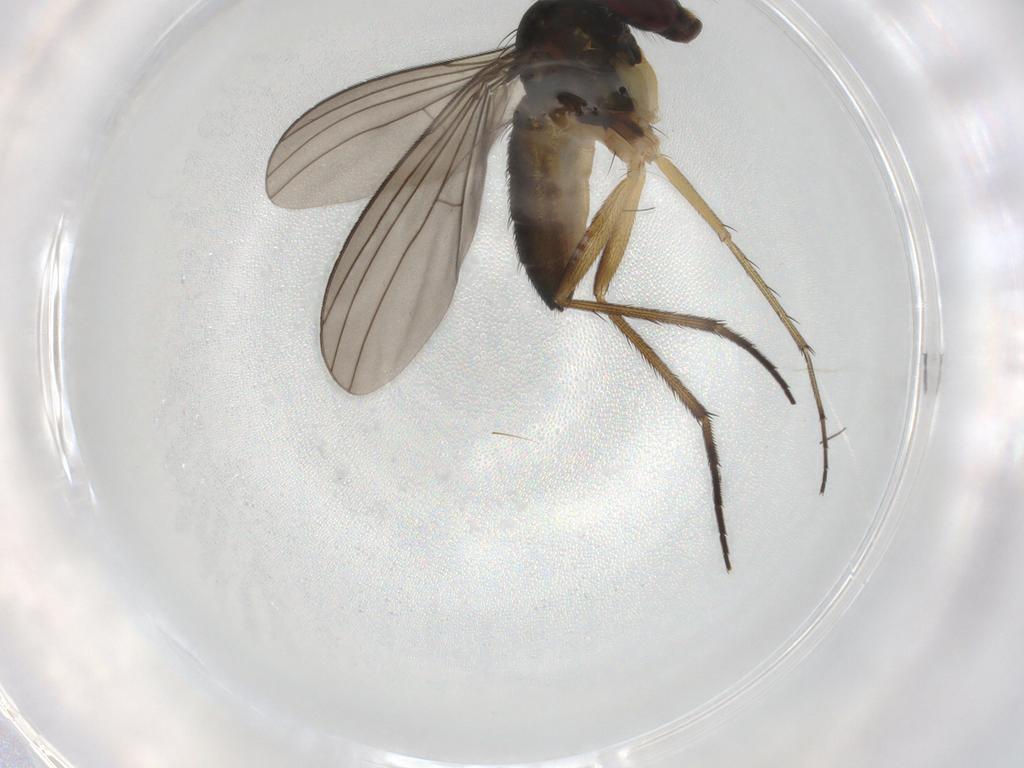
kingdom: Animalia
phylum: Arthropoda
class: Insecta
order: Diptera
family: Dolichopodidae
